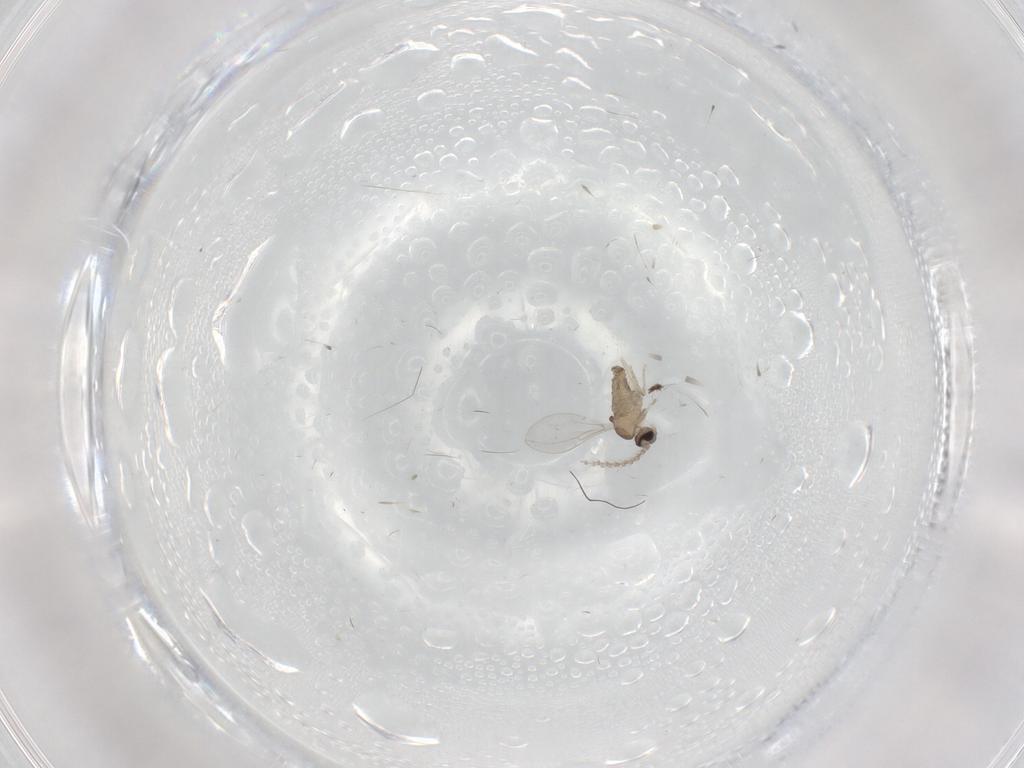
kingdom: Animalia
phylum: Arthropoda
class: Insecta
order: Diptera
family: Cecidomyiidae
